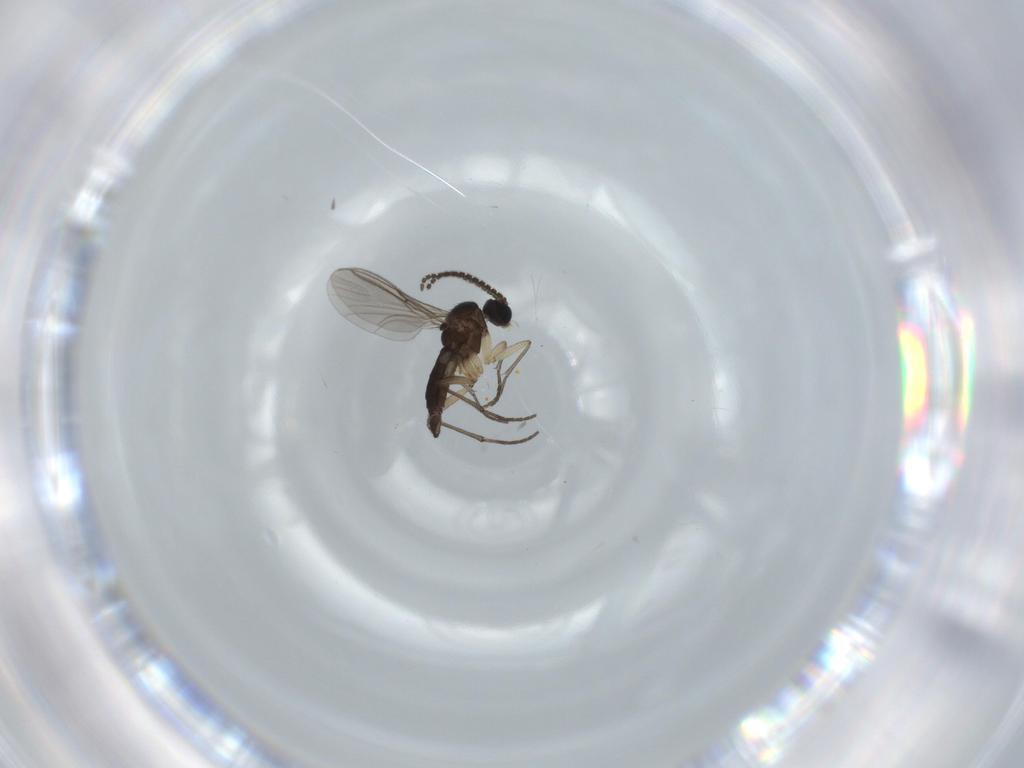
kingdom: Animalia
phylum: Arthropoda
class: Insecta
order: Diptera
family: Sciaridae
